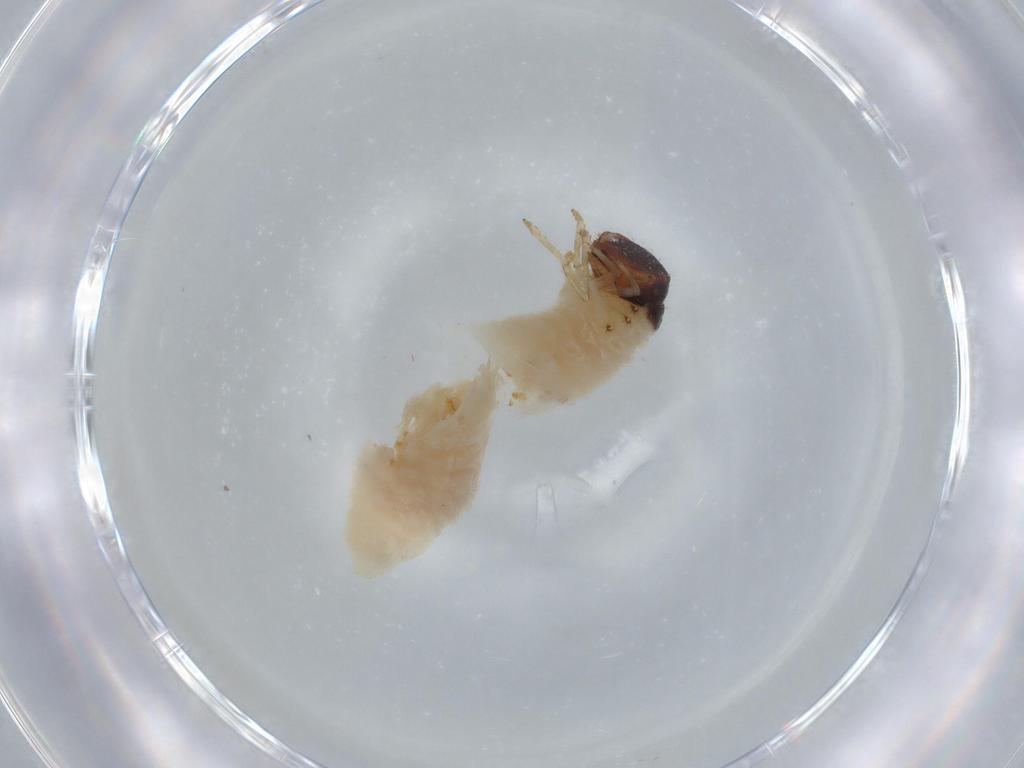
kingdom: Animalia
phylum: Arthropoda
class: Insecta
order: Coleoptera
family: Chrysomelidae
